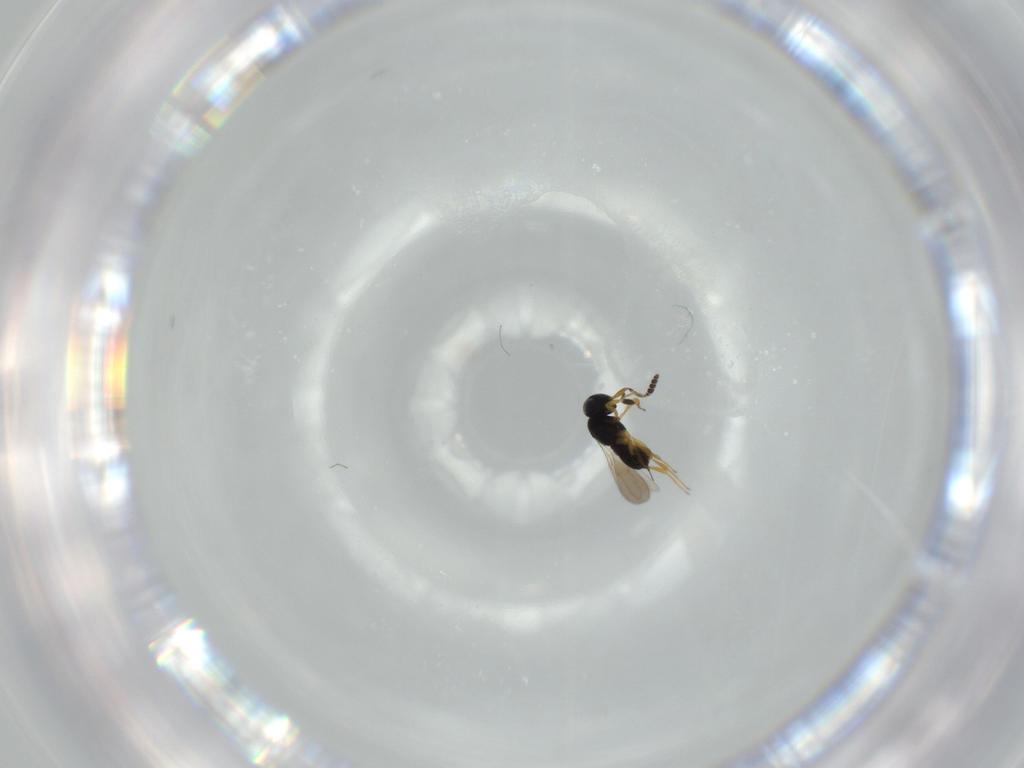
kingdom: Animalia
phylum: Arthropoda
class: Insecta
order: Hymenoptera
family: Scelionidae
